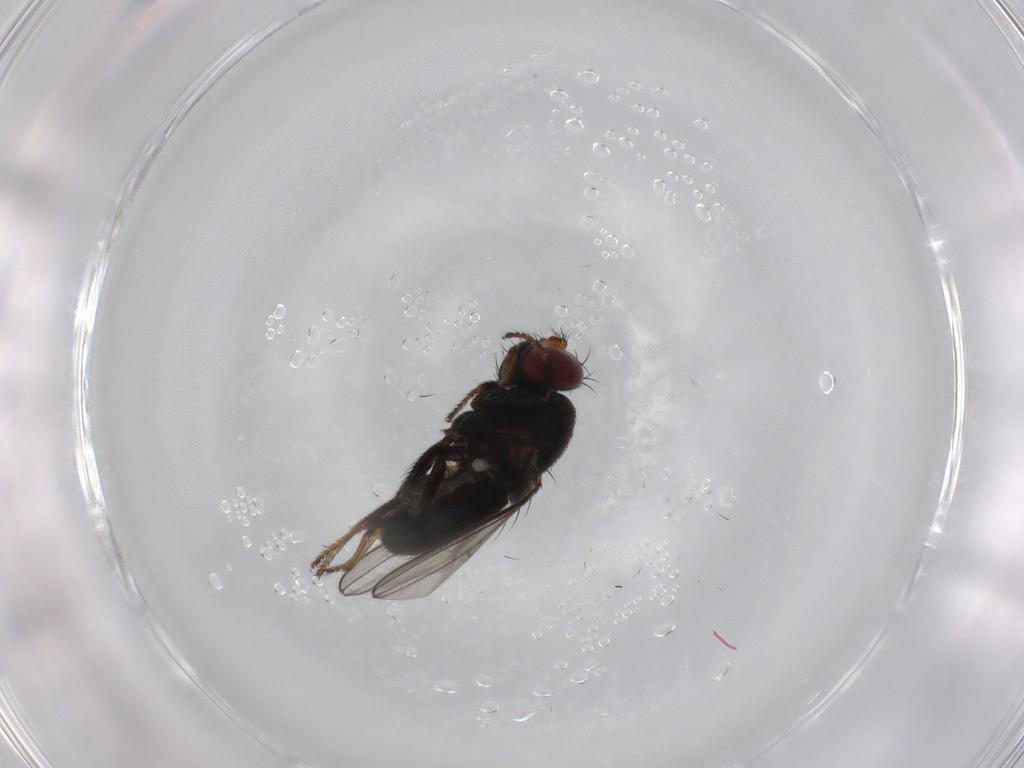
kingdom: Animalia
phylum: Arthropoda
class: Insecta
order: Diptera
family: Ephydridae
